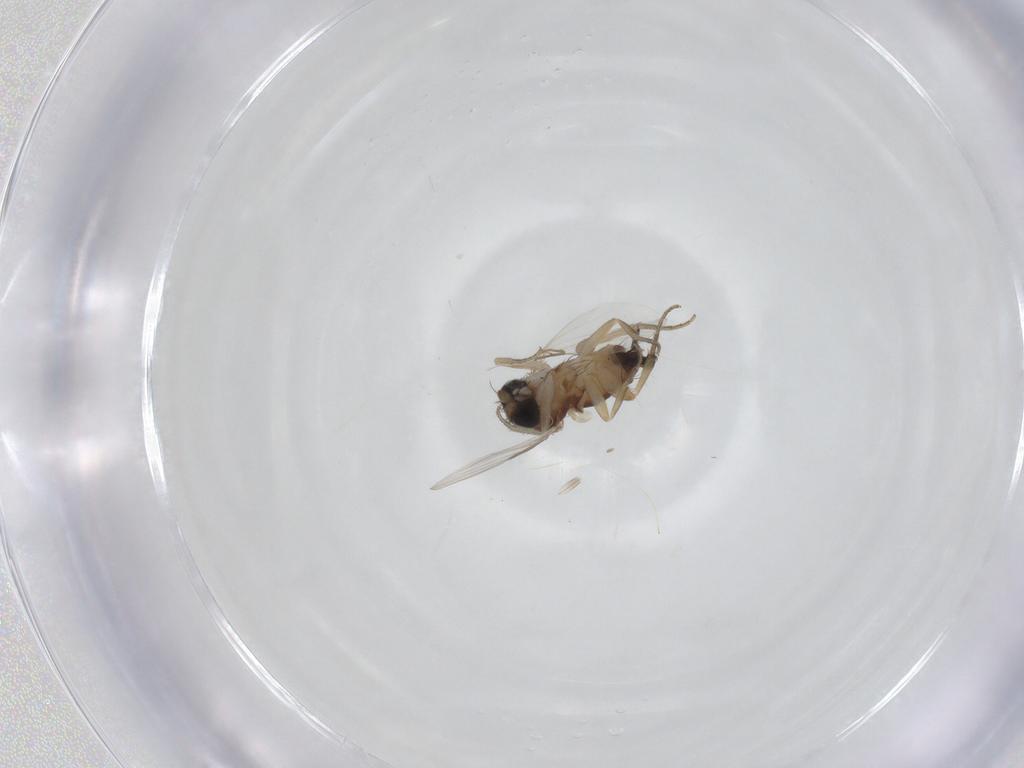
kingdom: Animalia
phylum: Arthropoda
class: Insecta
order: Diptera
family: Phoridae
